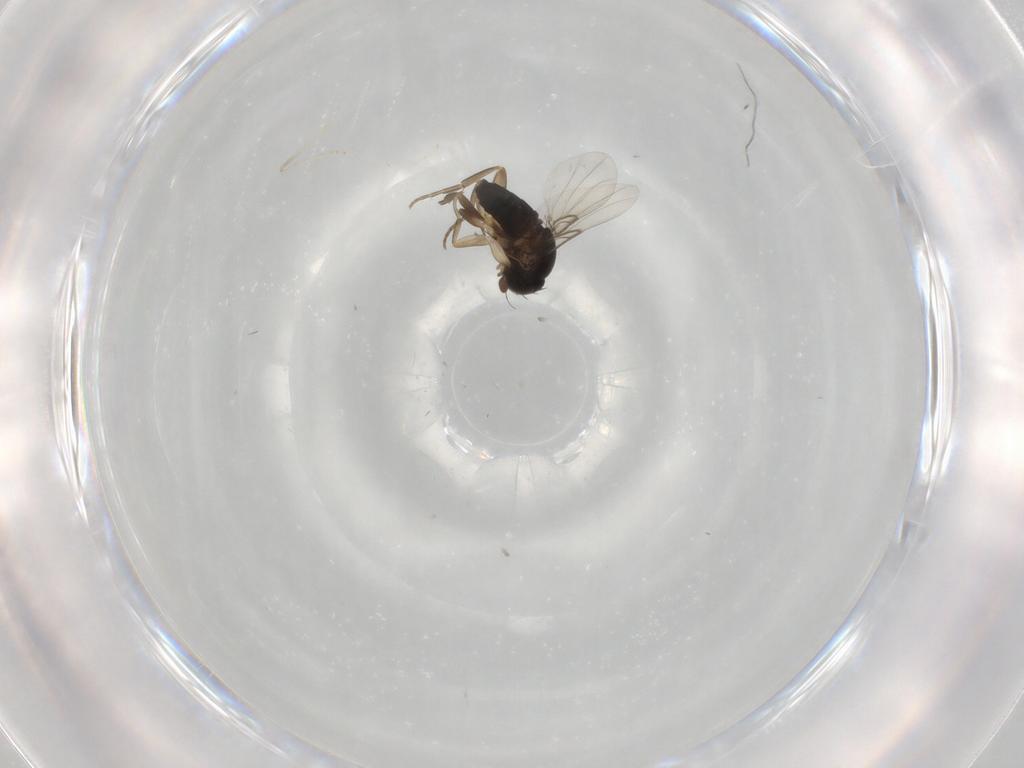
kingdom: Animalia
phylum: Arthropoda
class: Insecta
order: Diptera
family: Phoridae
